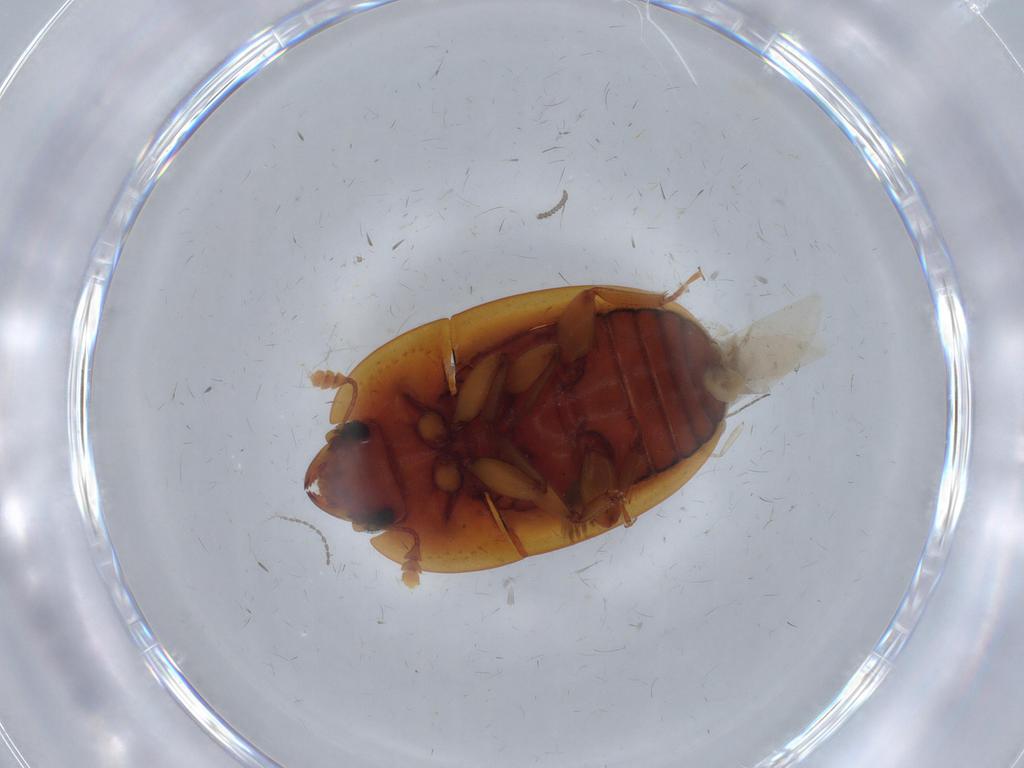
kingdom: Animalia
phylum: Arthropoda
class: Insecta
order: Coleoptera
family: Nitidulidae
